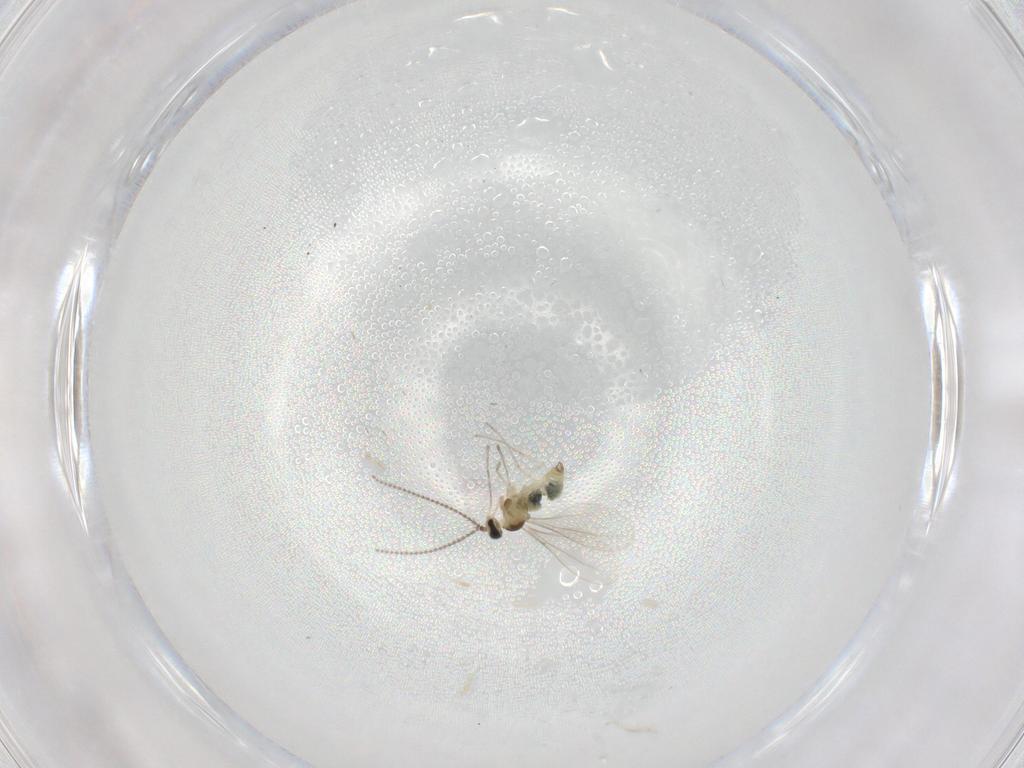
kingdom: Animalia
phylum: Arthropoda
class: Insecta
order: Diptera
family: Cecidomyiidae
